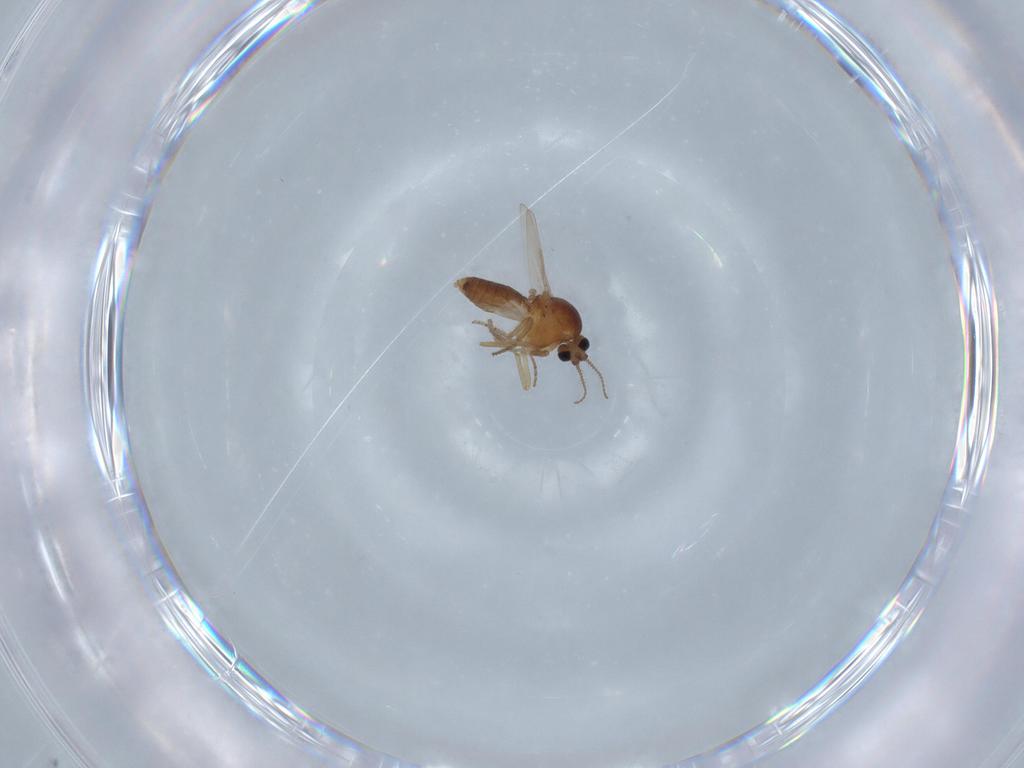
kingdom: Animalia
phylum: Arthropoda
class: Insecta
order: Diptera
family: Ceratopogonidae
